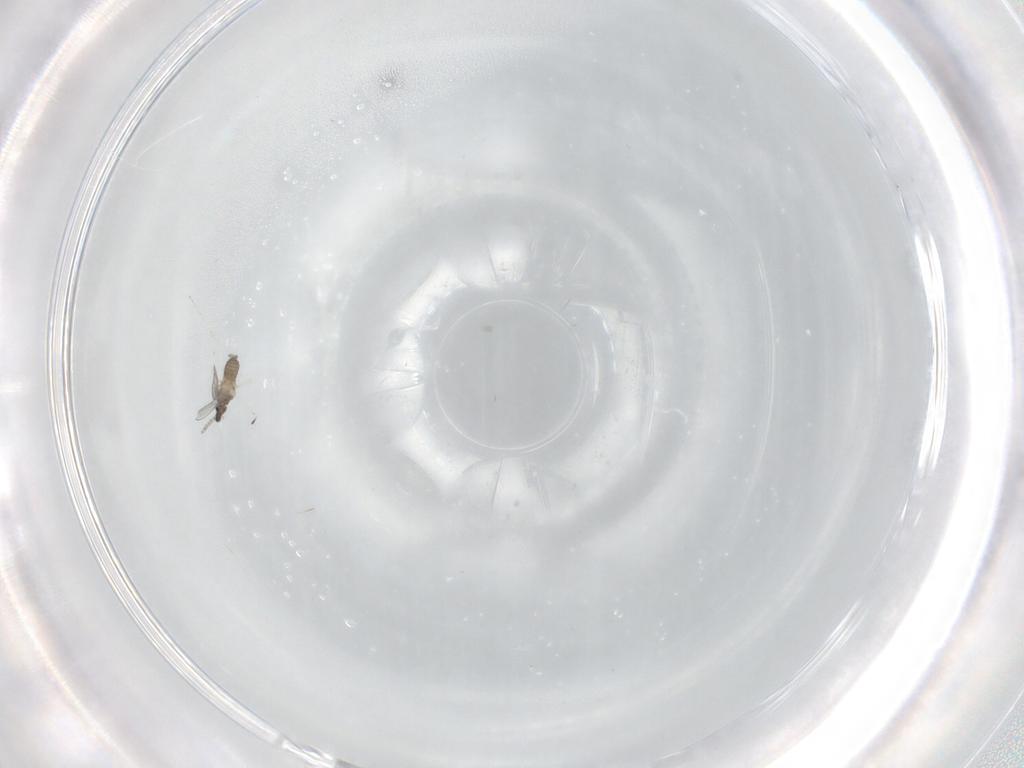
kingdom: Animalia
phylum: Arthropoda
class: Insecta
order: Diptera
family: Cecidomyiidae
